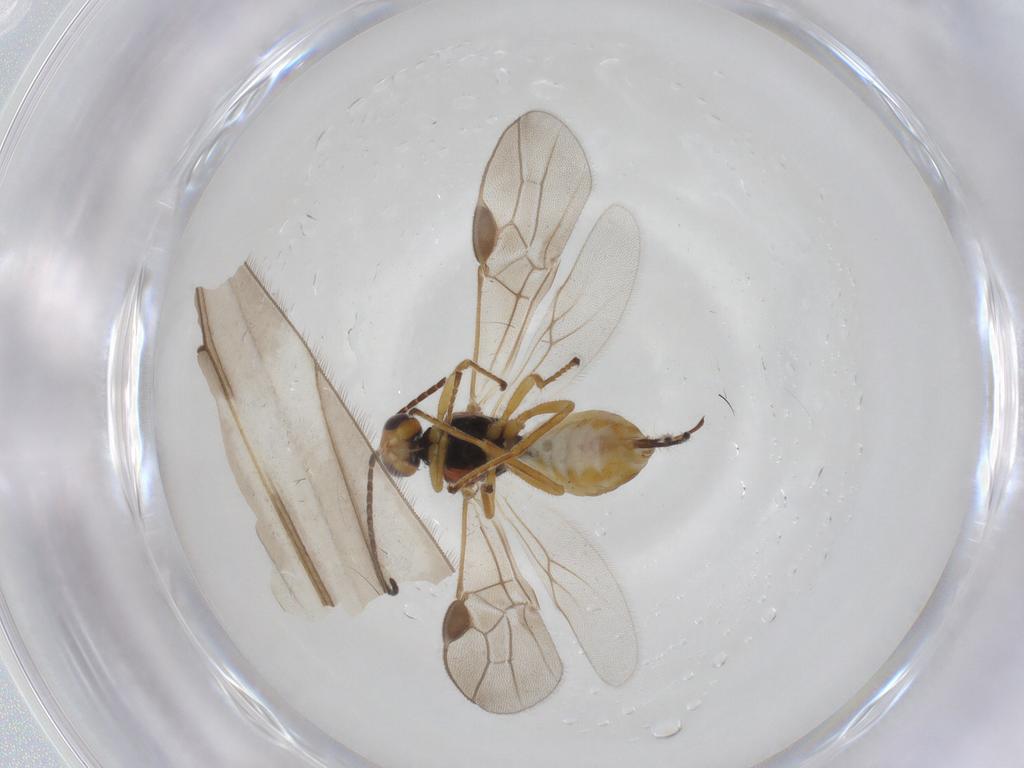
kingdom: Animalia
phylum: Arthropoda
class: Insecta
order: Hymenoptera
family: Braconidae
